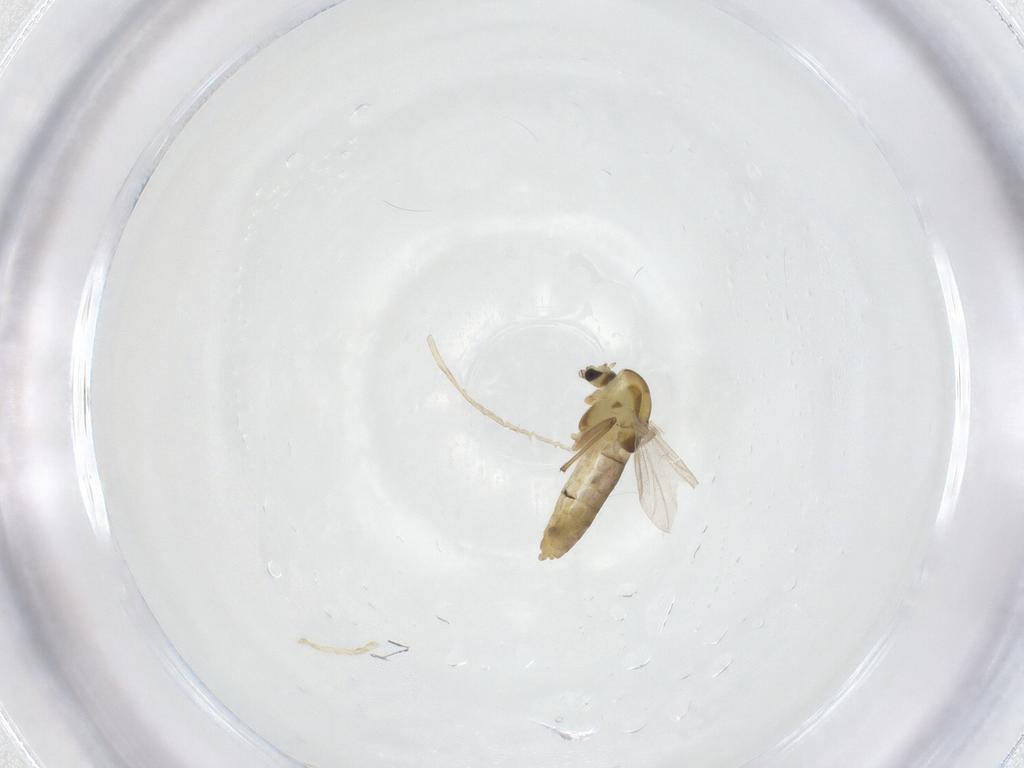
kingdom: Animalia
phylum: Arthropoda
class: Insecta
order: Diptera
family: Chironomidae
